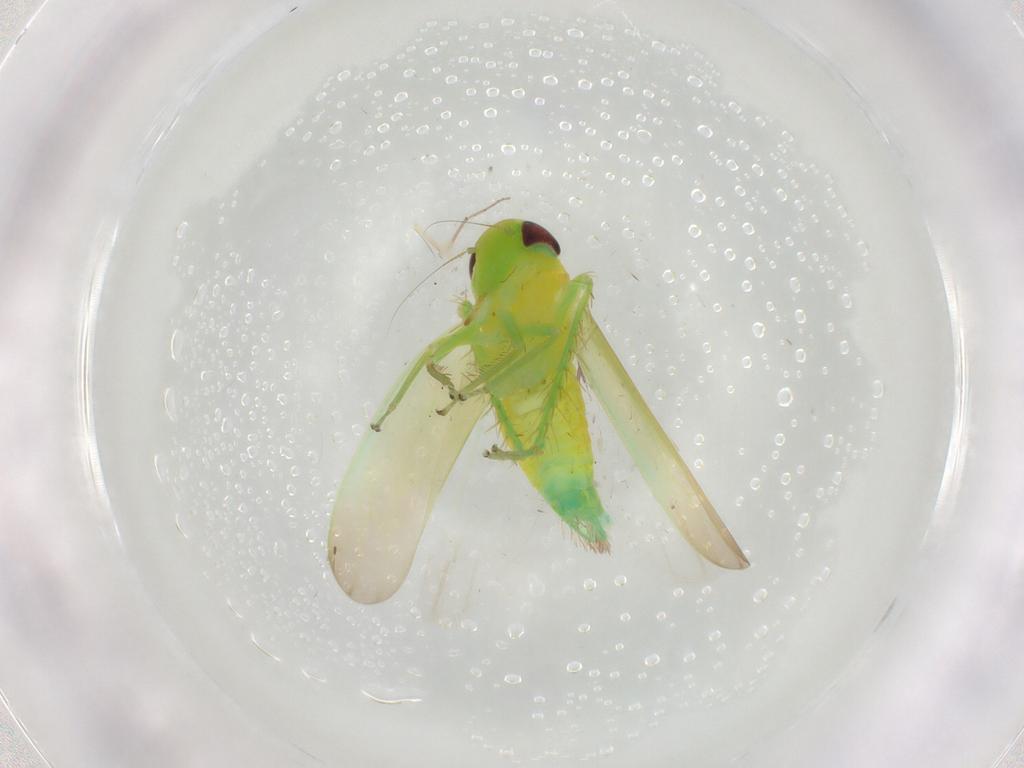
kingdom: Animalia
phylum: Arthropoda
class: Insecta
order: Hemiptera
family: Cicadellidae
